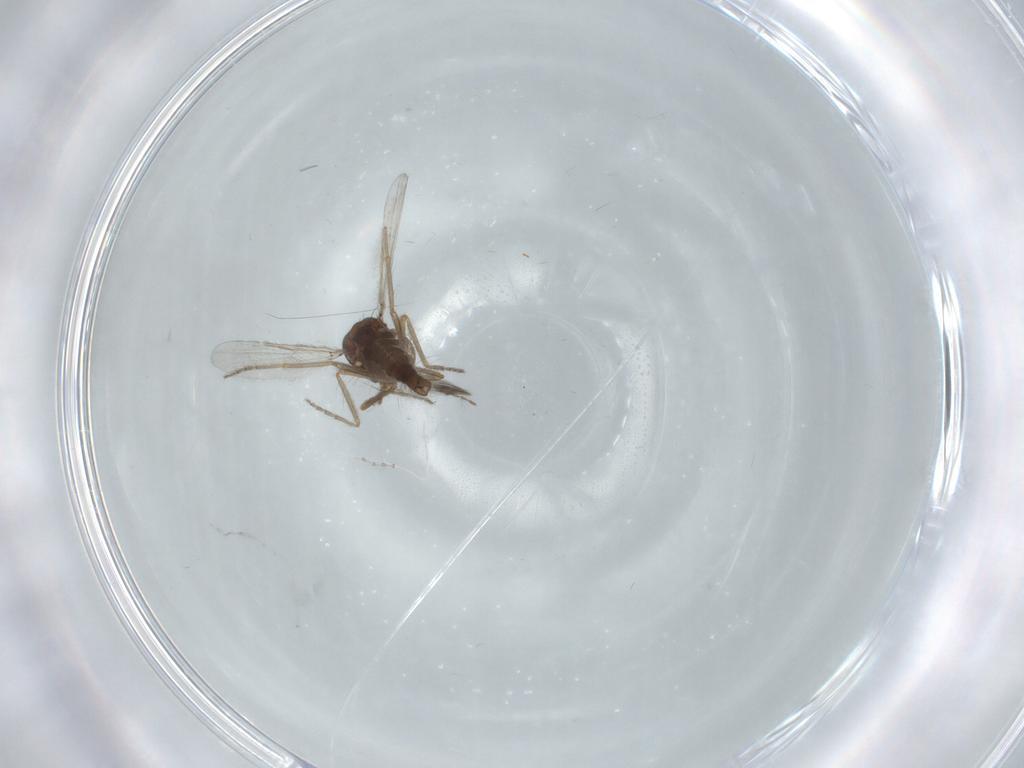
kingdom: Animalia
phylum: Arthropoda
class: Insecta
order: Diptera
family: Ceratopogonidae
